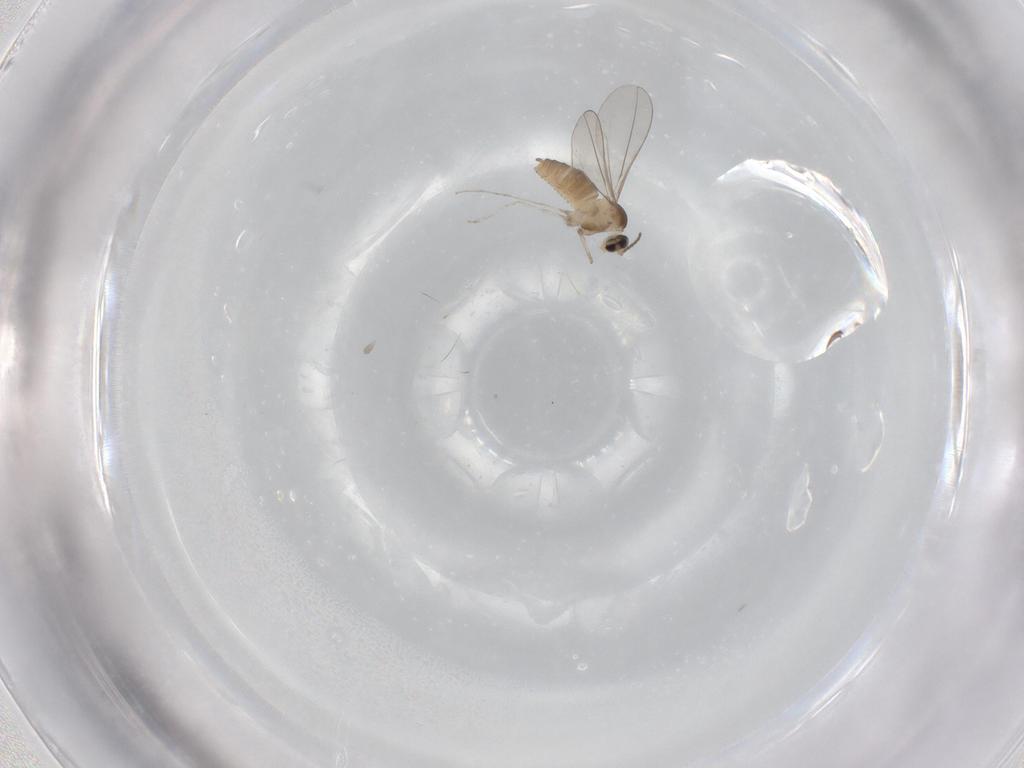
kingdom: Animalia
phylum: Arthropoda
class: Insecta
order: Diptera
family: Cecidomyiidae
